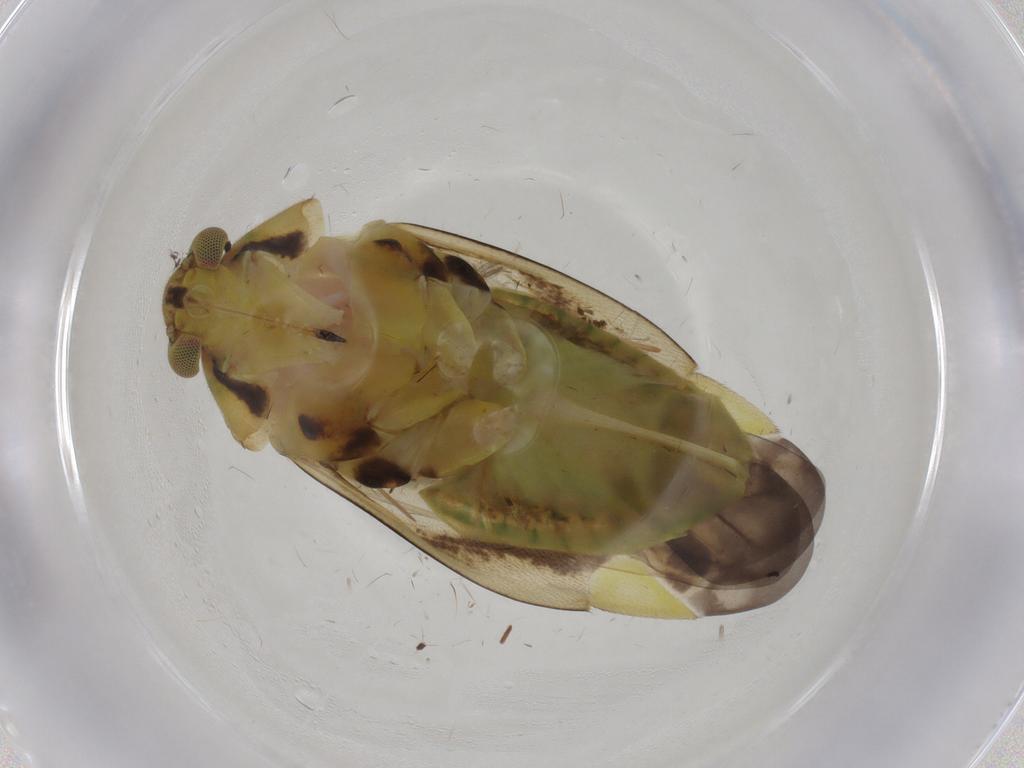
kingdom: Animalia
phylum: Arthropoda
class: Insecta
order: Hemiptera
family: Miridae
